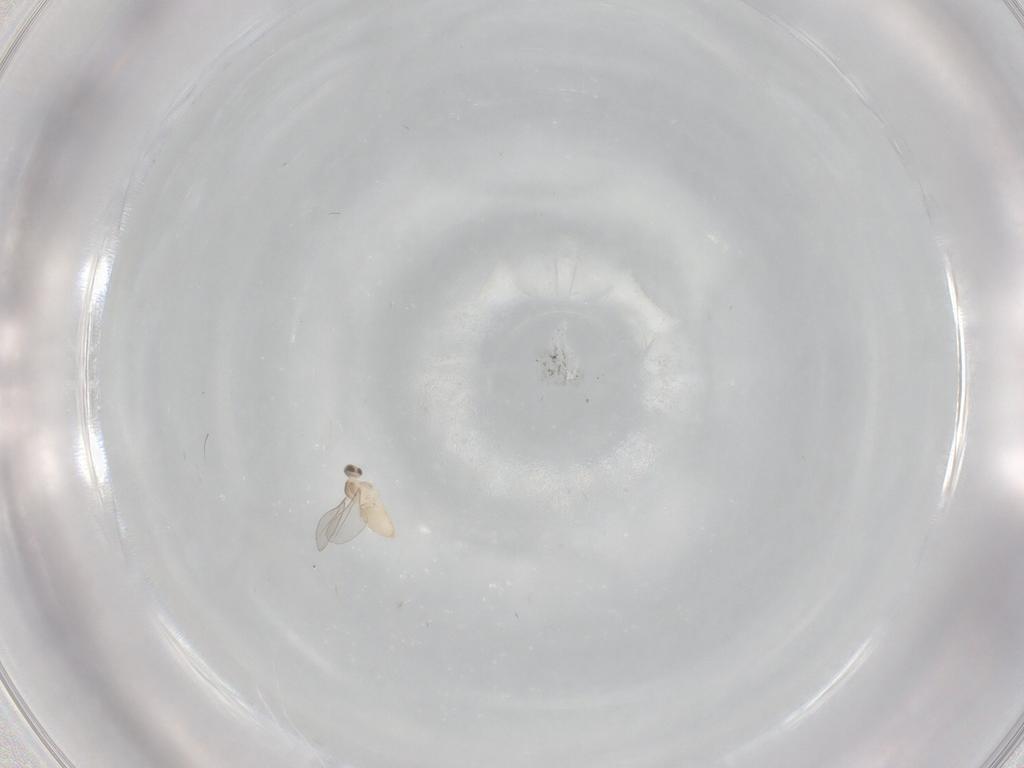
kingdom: Animalia
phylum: Arthropoda
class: Insecta
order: Diptera
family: Cecidomyiidae
